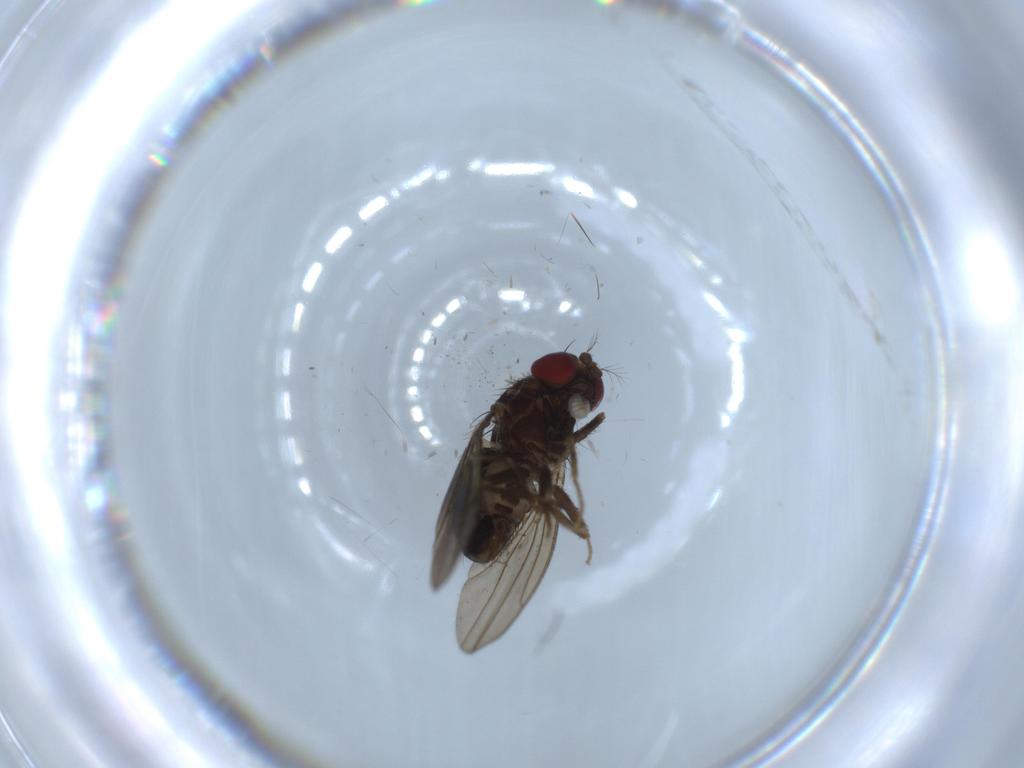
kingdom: Animalia
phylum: Arthropoda
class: Insecta
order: Diptera
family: Drosophilidae
